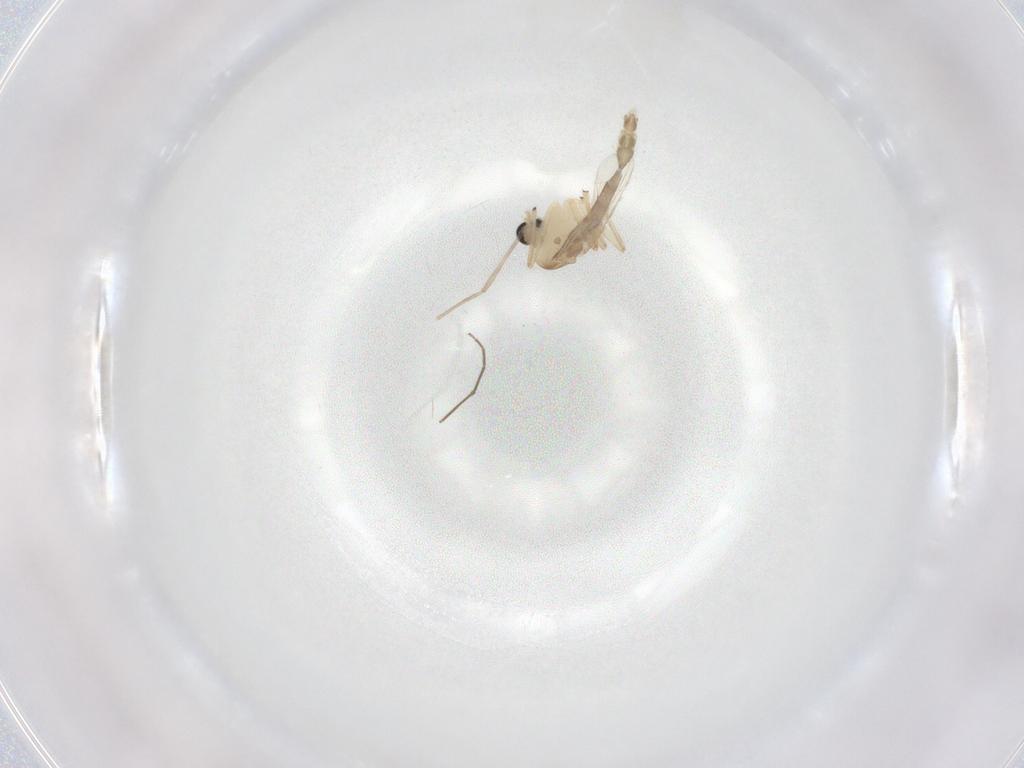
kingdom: Animalia
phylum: Arthropoda
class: Insecta
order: Diptera
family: Chironomidae
